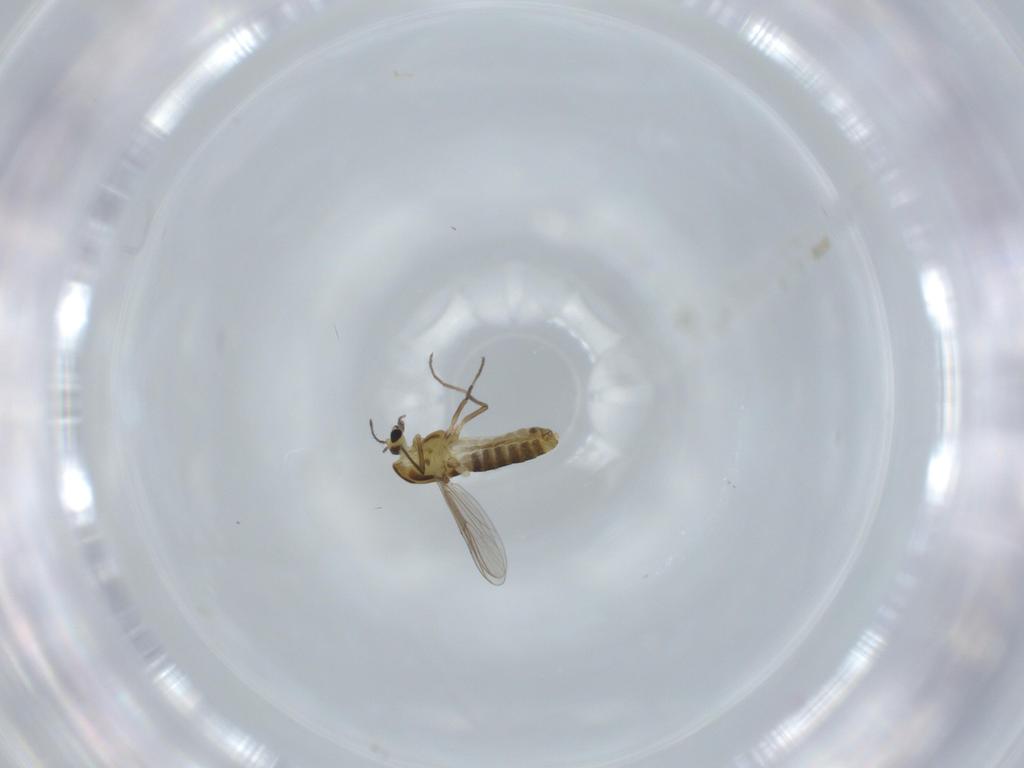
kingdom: Animalia
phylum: Arthropoda
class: Insecta
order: Diptera
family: Chironomidae
